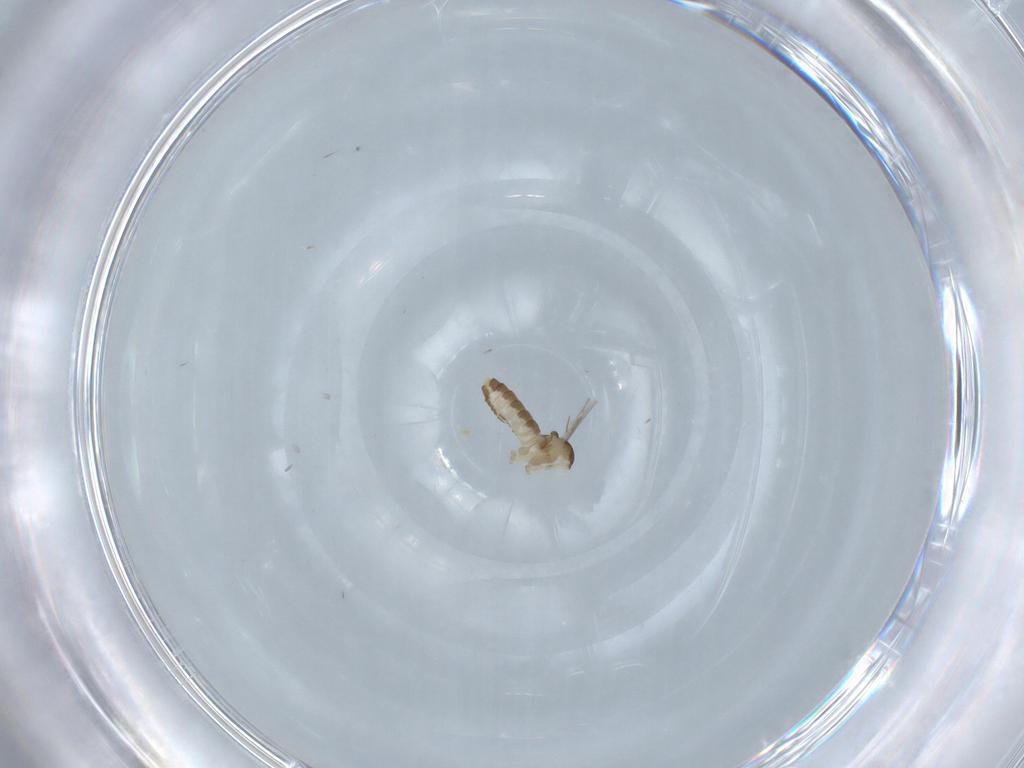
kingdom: Animalia
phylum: Arthropoda
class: Insecta
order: Diptera
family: Cecidomyiidae
